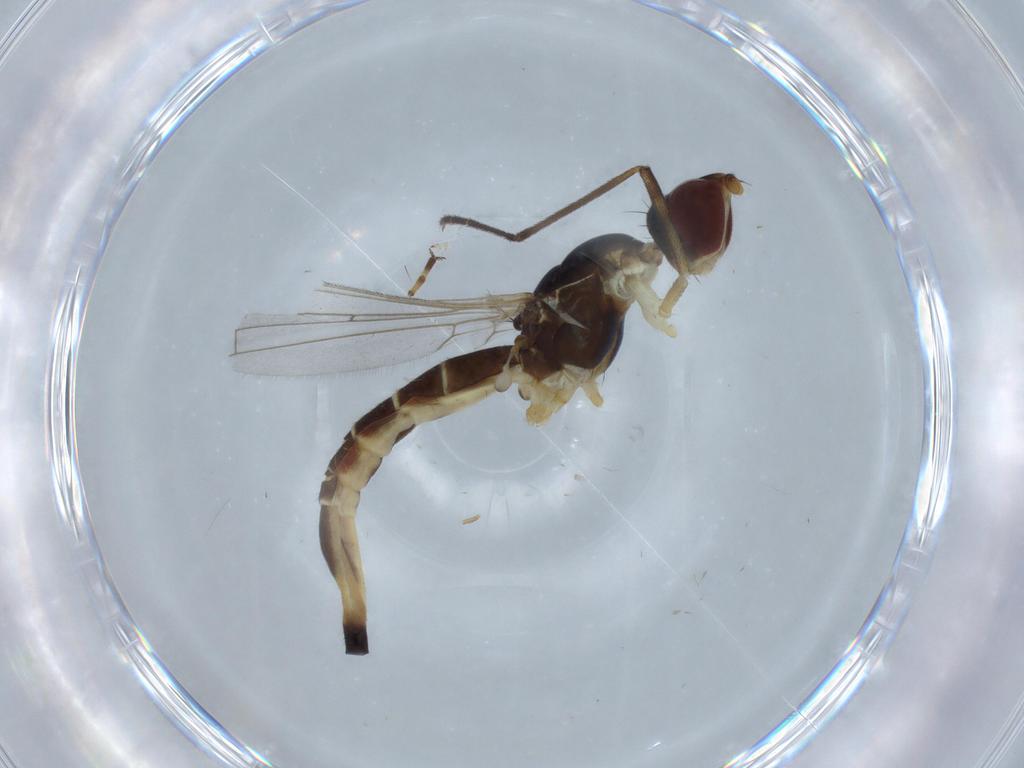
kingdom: Animalia
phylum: Arthropoda
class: Insecta
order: Diptera
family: Micropezidae
